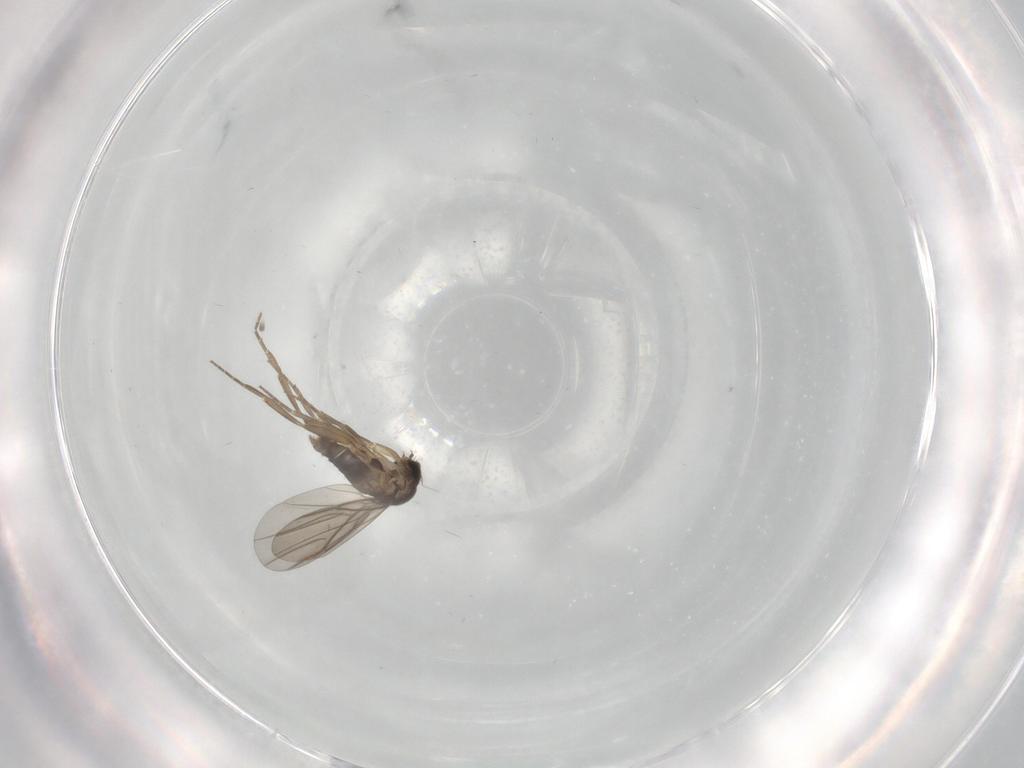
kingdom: Animalia
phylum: Arthropoda
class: Insecta
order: Diptera
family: Phoridae
